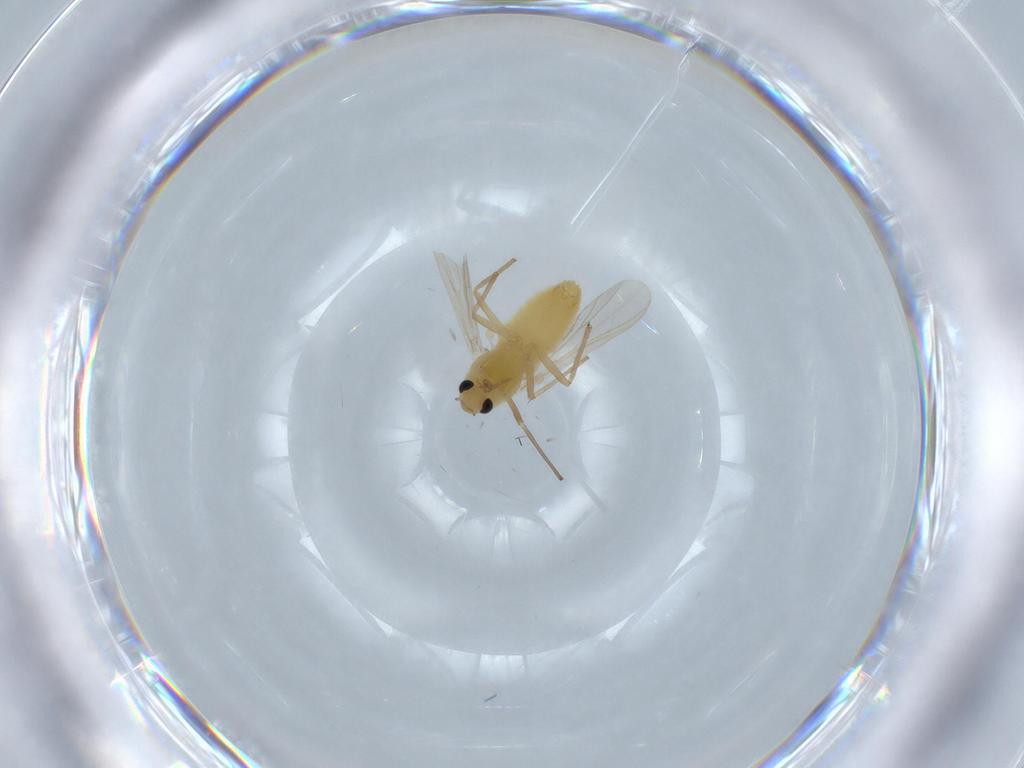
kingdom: Animalia
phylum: Arthropoda
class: Insecta
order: Diptera
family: Chironomidae
